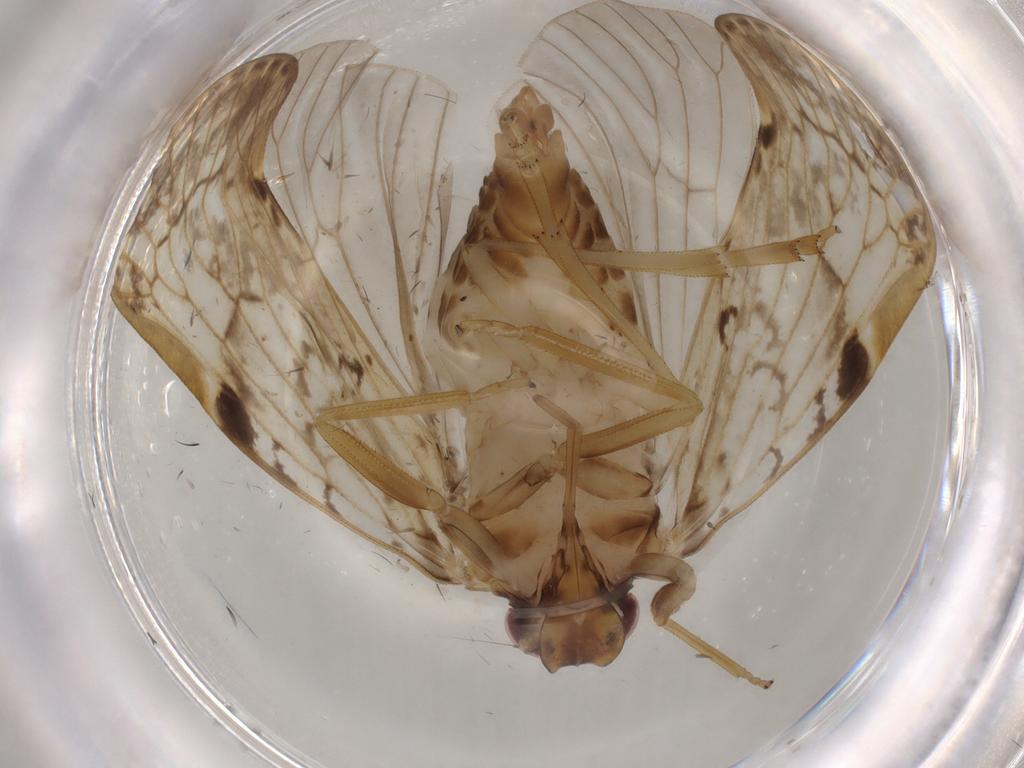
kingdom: Animalia
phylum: Arthropoda
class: Insecta
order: Hemiptera
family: Cixiidae
